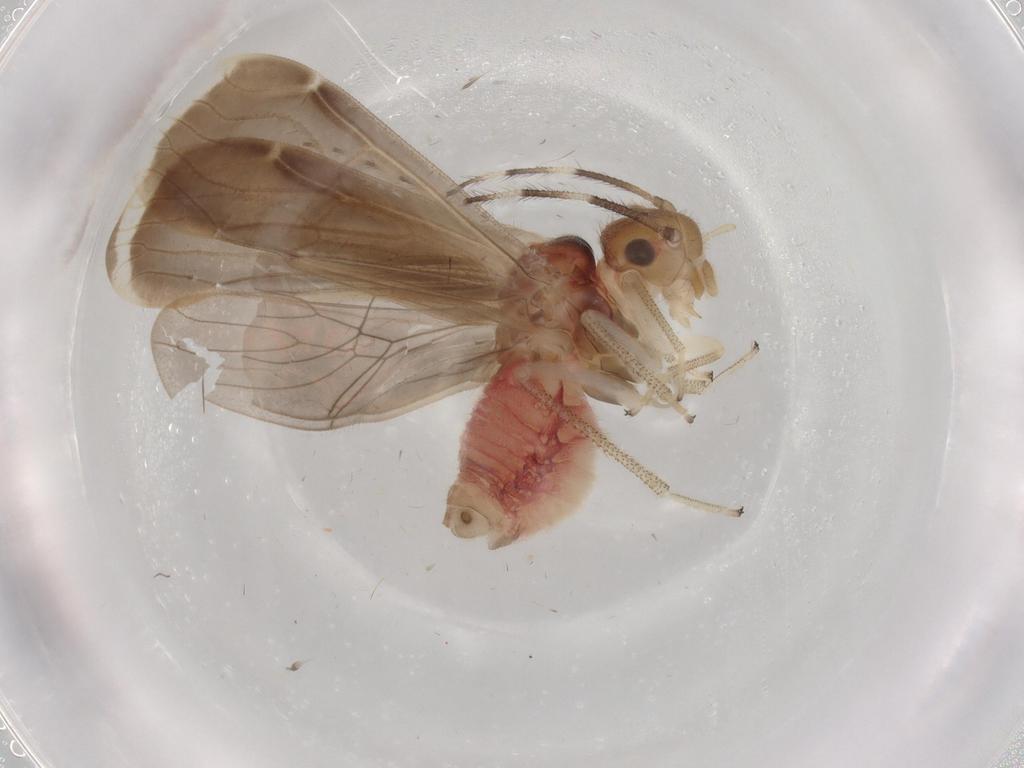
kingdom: Animalia
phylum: Arthropoda
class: Insecta
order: Psocodea
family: Amphipsocidae
